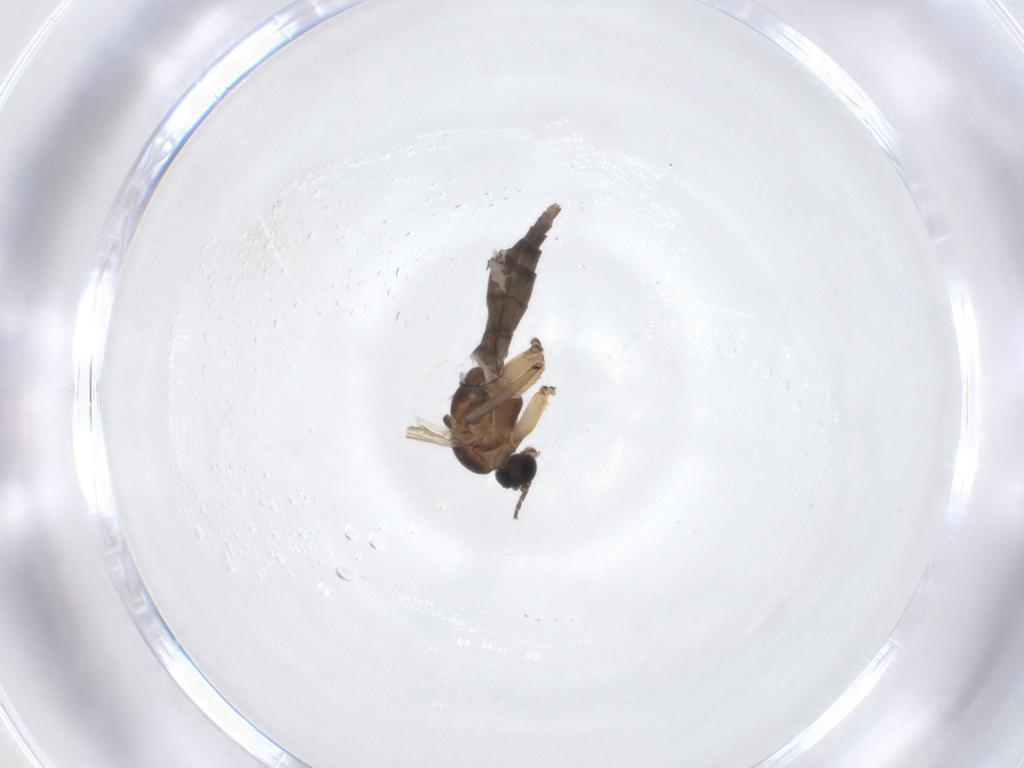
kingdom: Animalia
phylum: Arthropoda
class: Insecta
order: Diptera
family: Sciaridae
